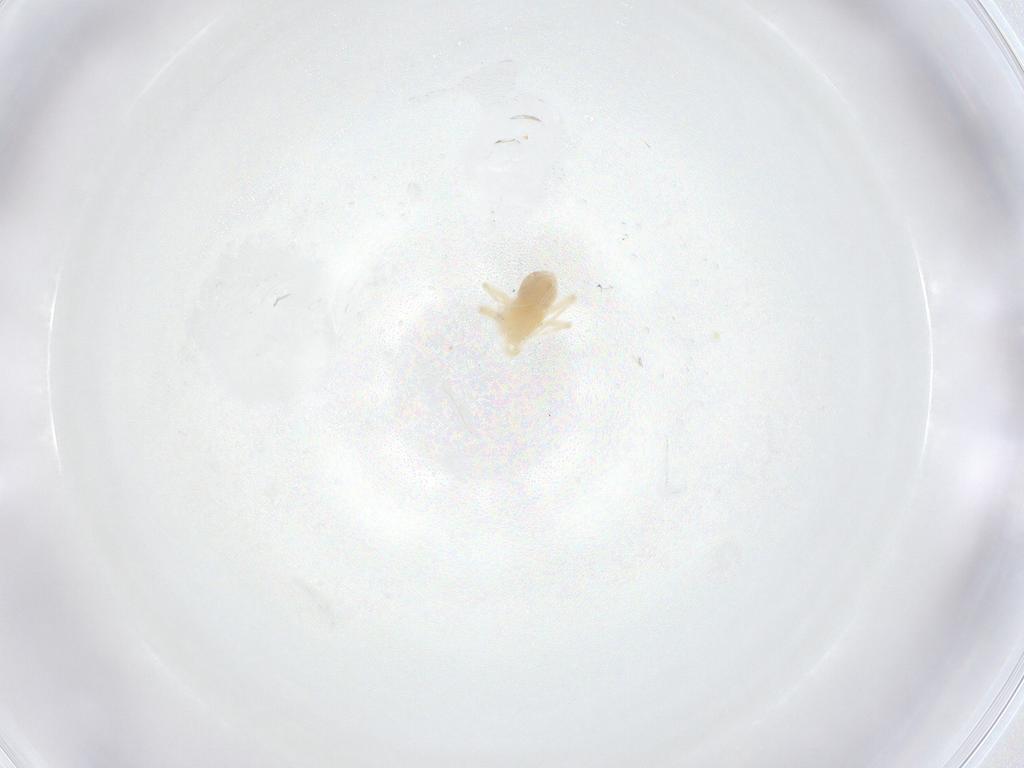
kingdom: Animalia
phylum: Arthropoda
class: Arachnida
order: Trombidiformes
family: Anystidae
